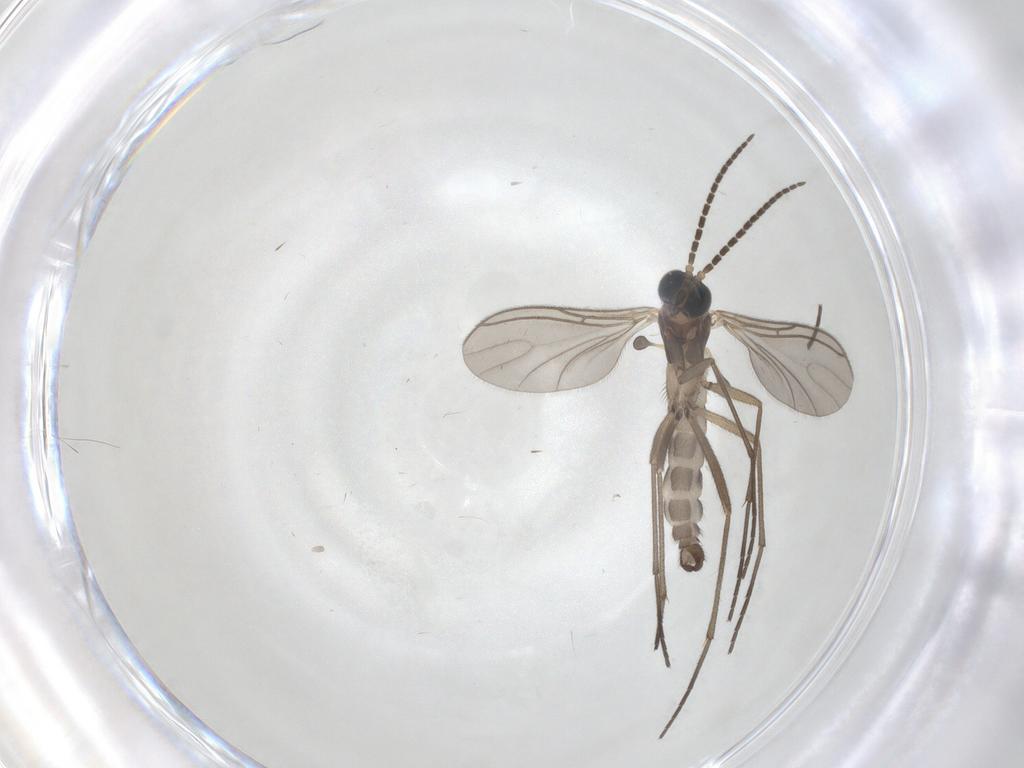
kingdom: Animalia
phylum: Arthropoda
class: Insecta
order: Diptera
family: Sciaridae
